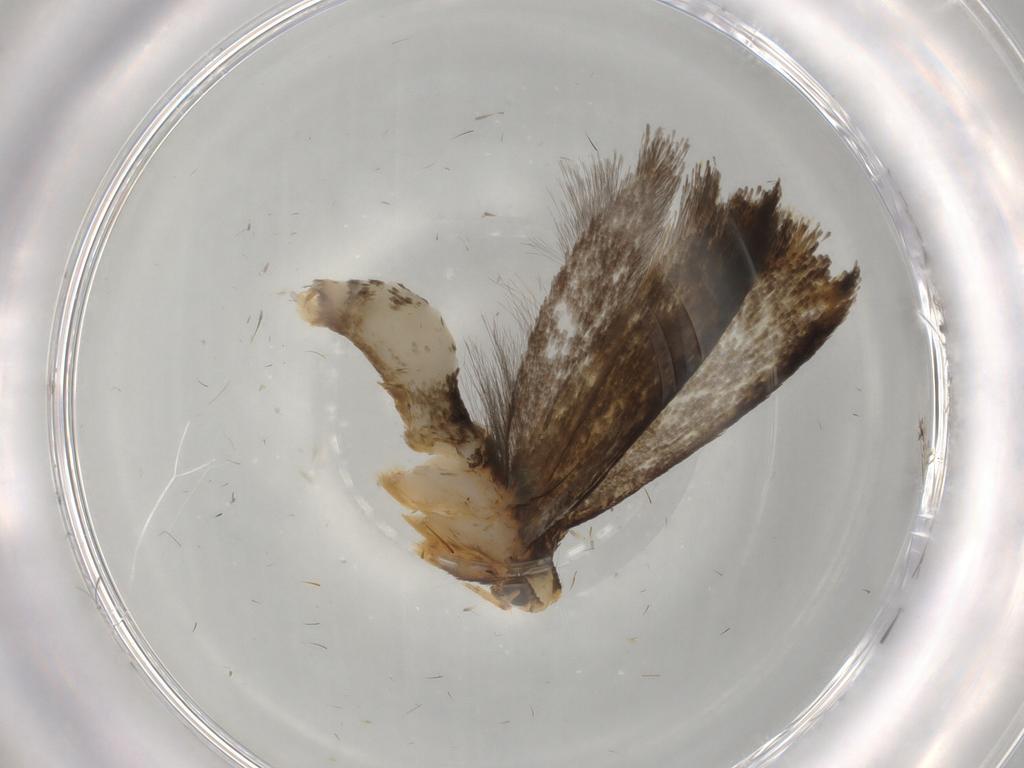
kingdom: Animalia
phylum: Arthropoda
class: Insecta
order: Lepidoptera
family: Tineidae
